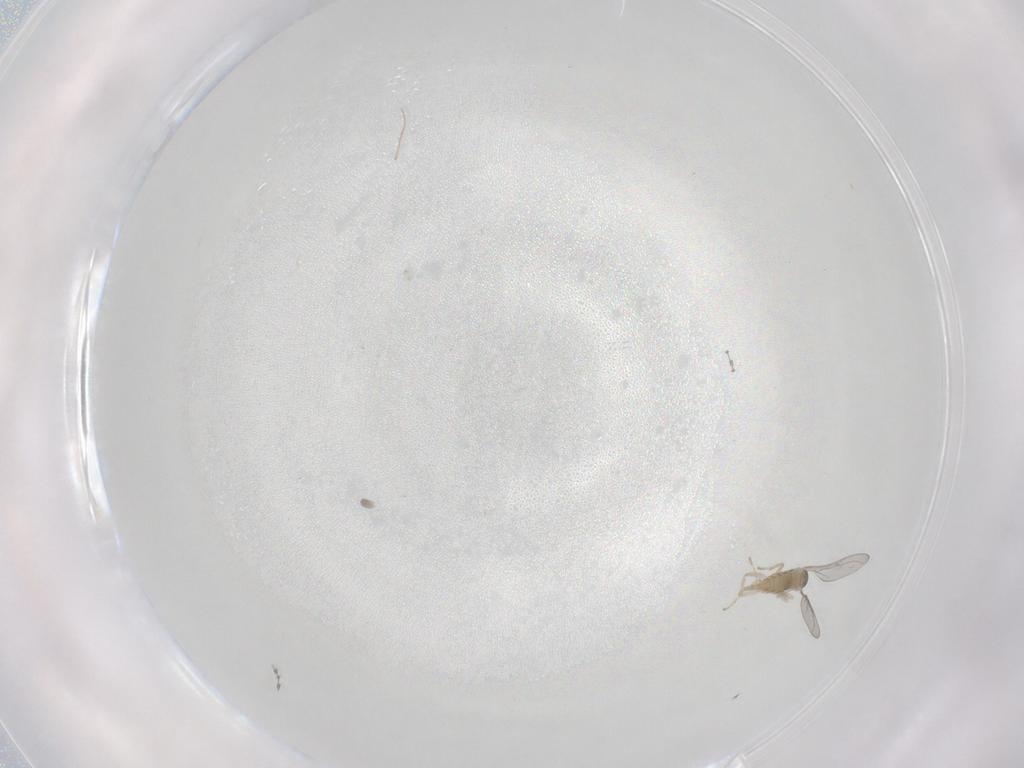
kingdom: Animalia
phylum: Arthropoda
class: Insecta
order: Diptera
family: Cecidomyiidae
